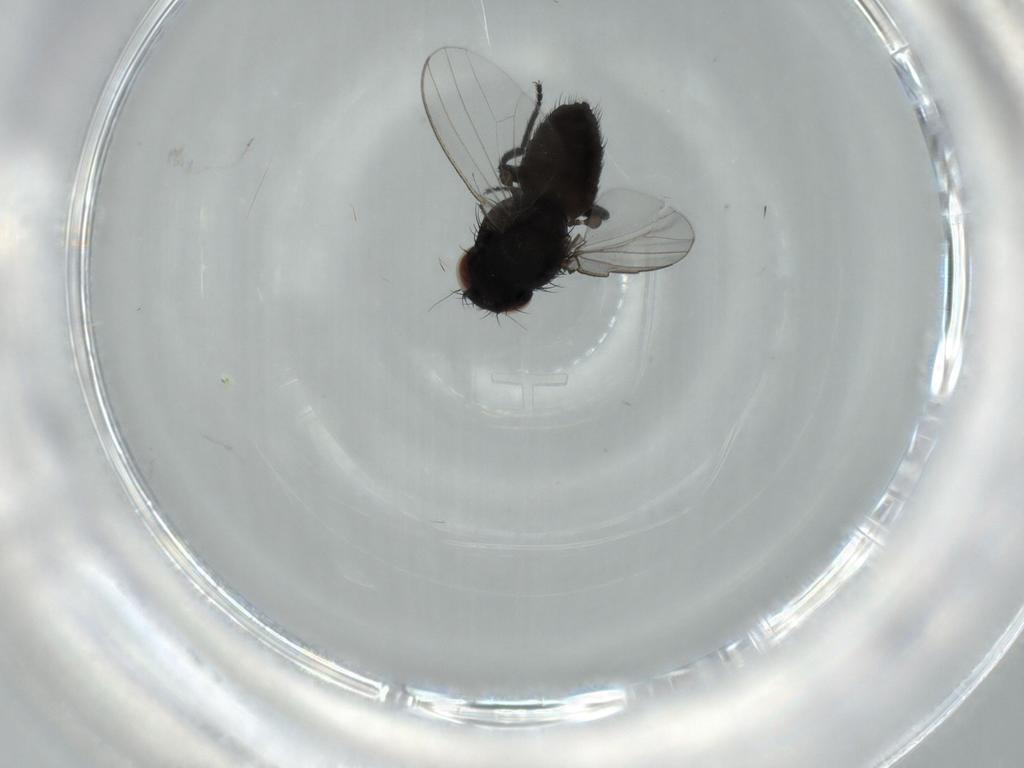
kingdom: Animalia
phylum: Arthropoda
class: Insecta
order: Diptera
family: Milichiidae
